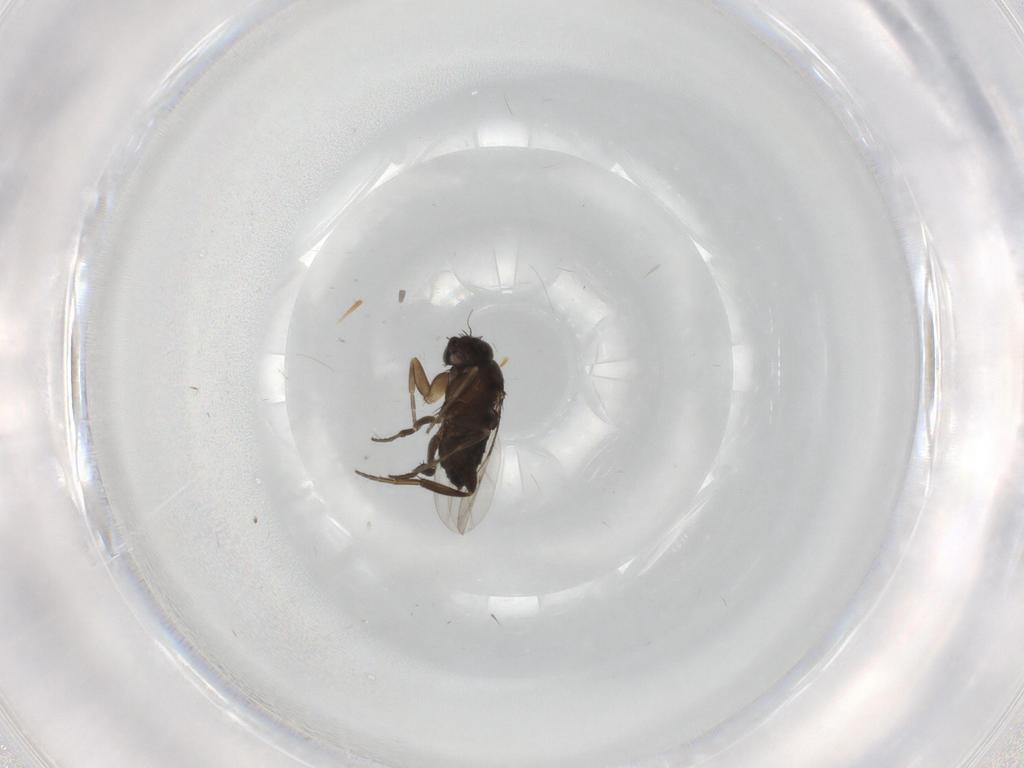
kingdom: Animalia
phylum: Arthropoda
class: Insecta
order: Diptera
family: Phoridae
